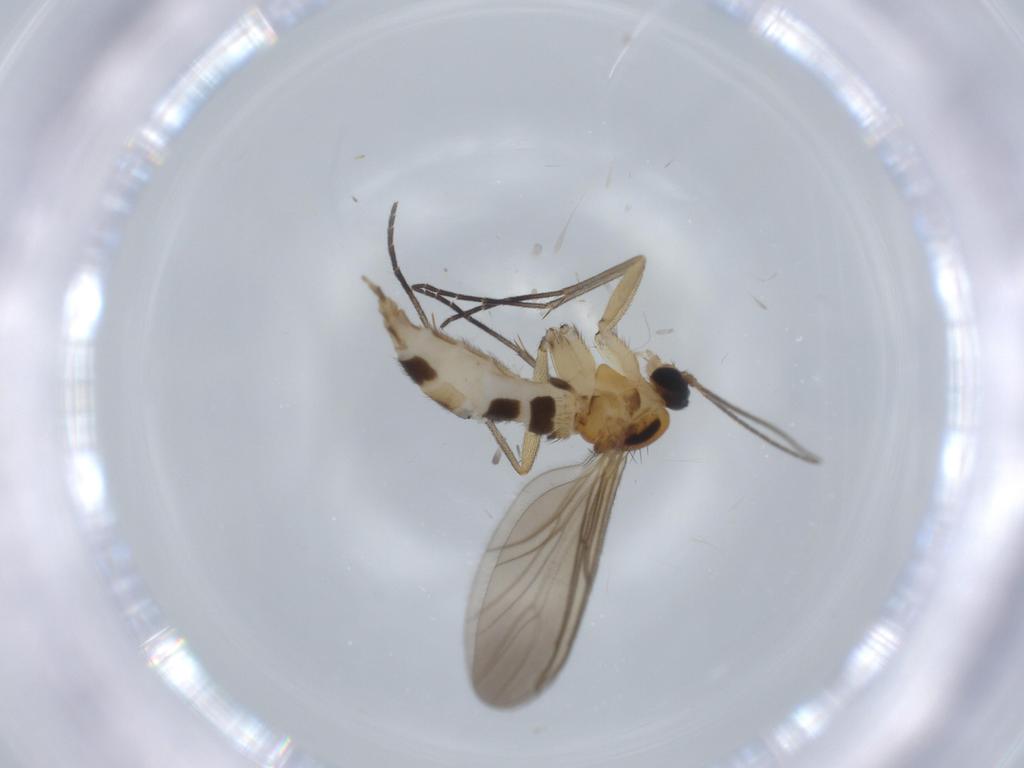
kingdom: Animalia
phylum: Arthropoda
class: Insecta
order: Diptera
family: Sciaridae
